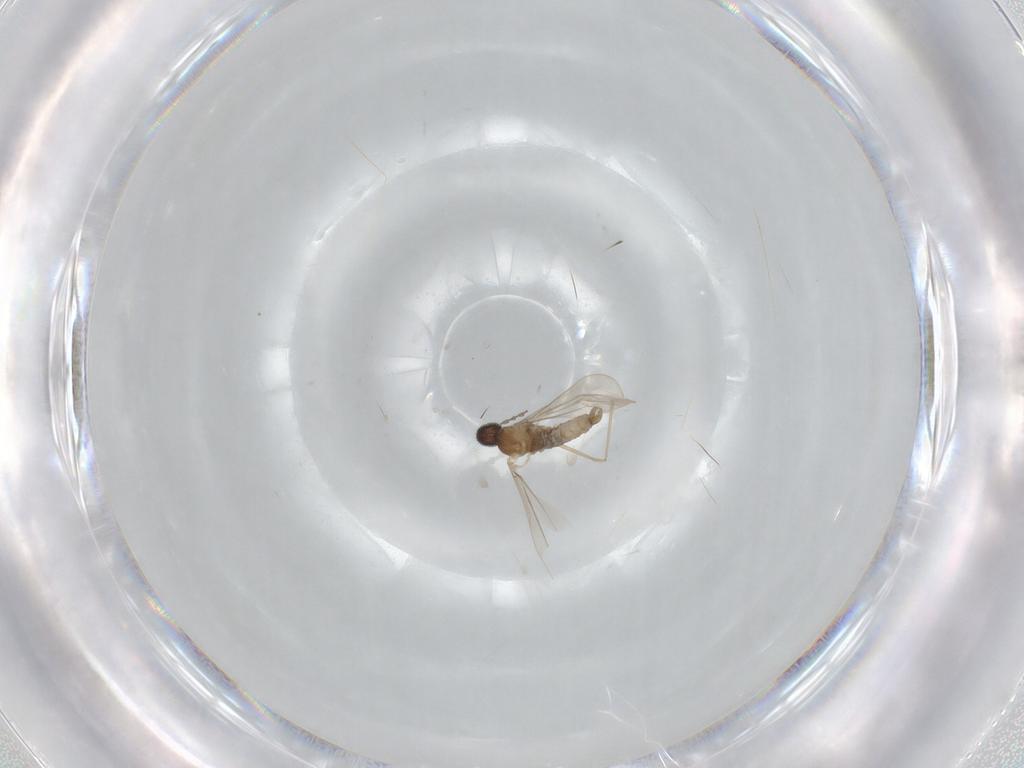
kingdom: Animalia
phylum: Arthropoda
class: Insecta
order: Diptera
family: Cecidomyiidae
